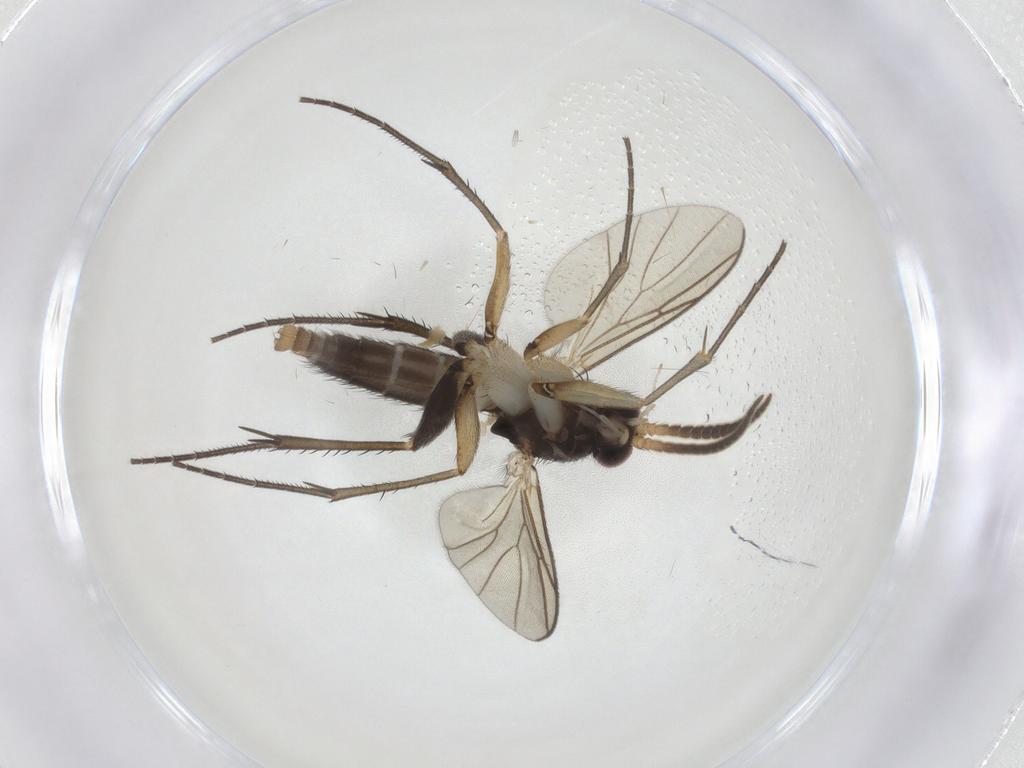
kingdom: Animalia
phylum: Arthropoda
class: Insecta
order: Diptera
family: Mycetophilidae
